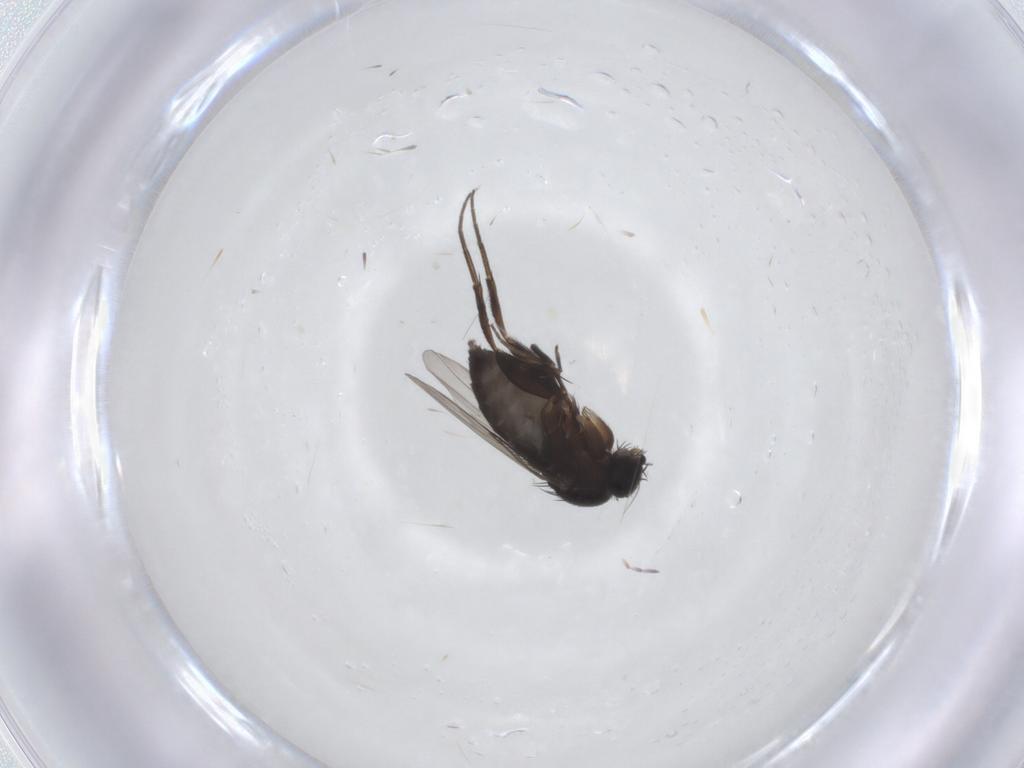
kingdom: Animalia
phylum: Arthropoda
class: Insecta
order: Diptera
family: Phoridae
